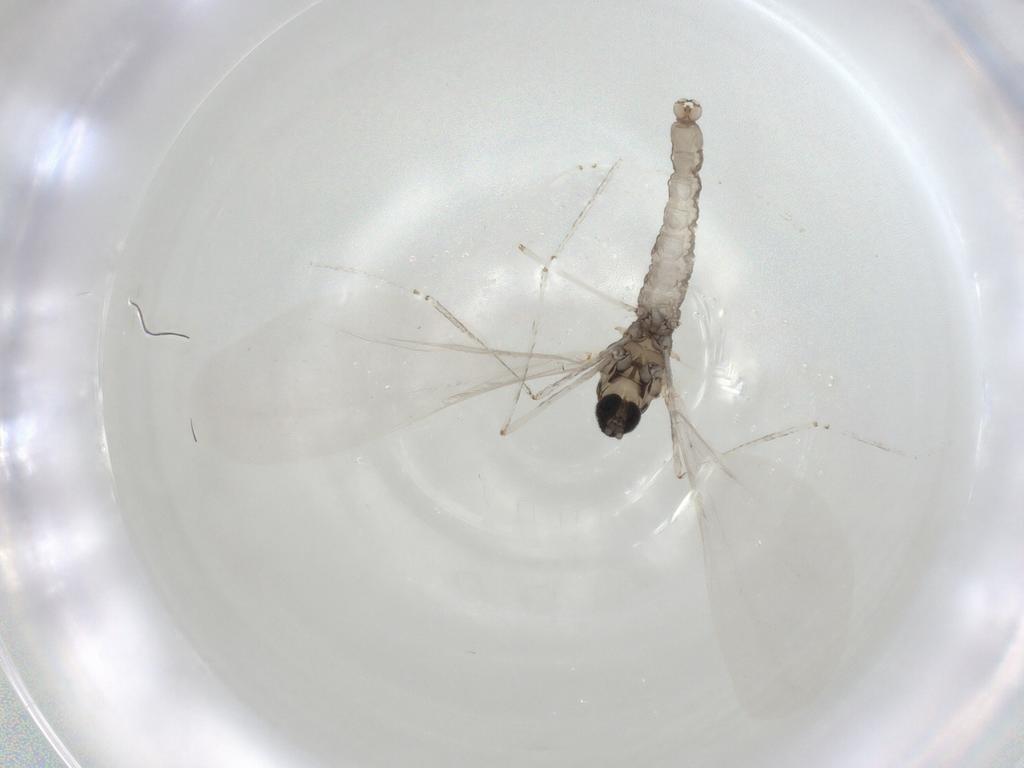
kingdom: Animalia
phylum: Arthropoda
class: Insecta
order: Diptera
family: Cecidomyiidae
